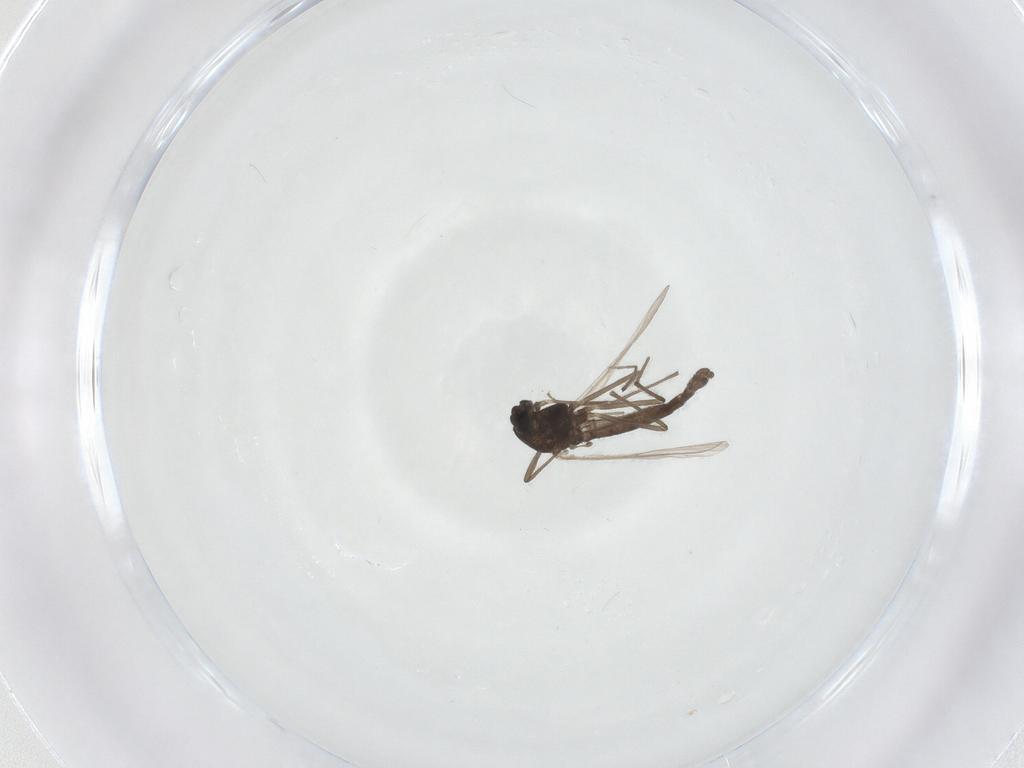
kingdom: Animalia
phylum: Arthropoda
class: Insecta
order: Diptera
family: Chironomidae
